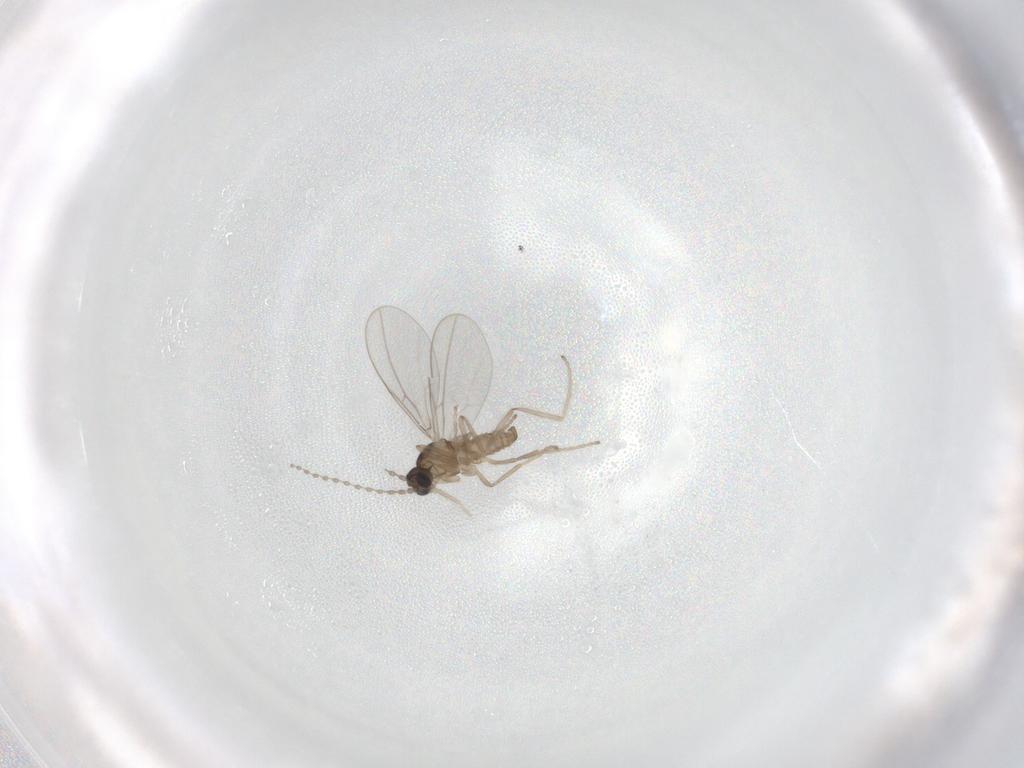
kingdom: Animalia
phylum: Arthropoda
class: Insecta
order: Diptera
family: Cecidomyiidae
